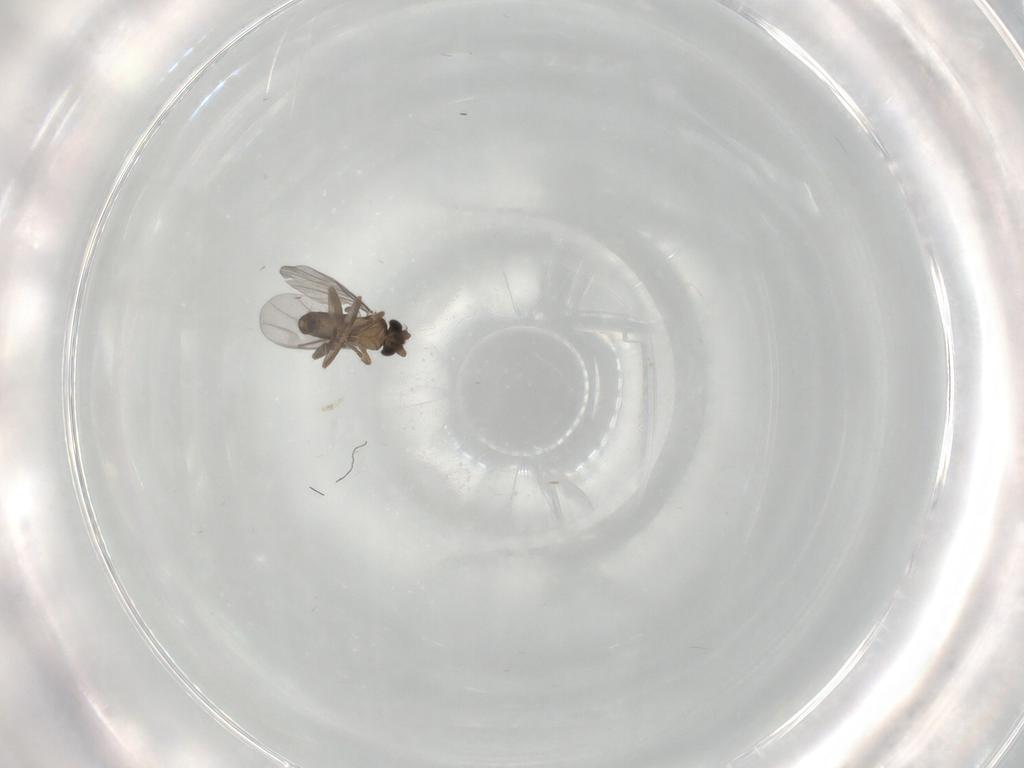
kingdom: Animalia
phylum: Arthropoda
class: Insecta
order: Diptera
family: Phoridae
